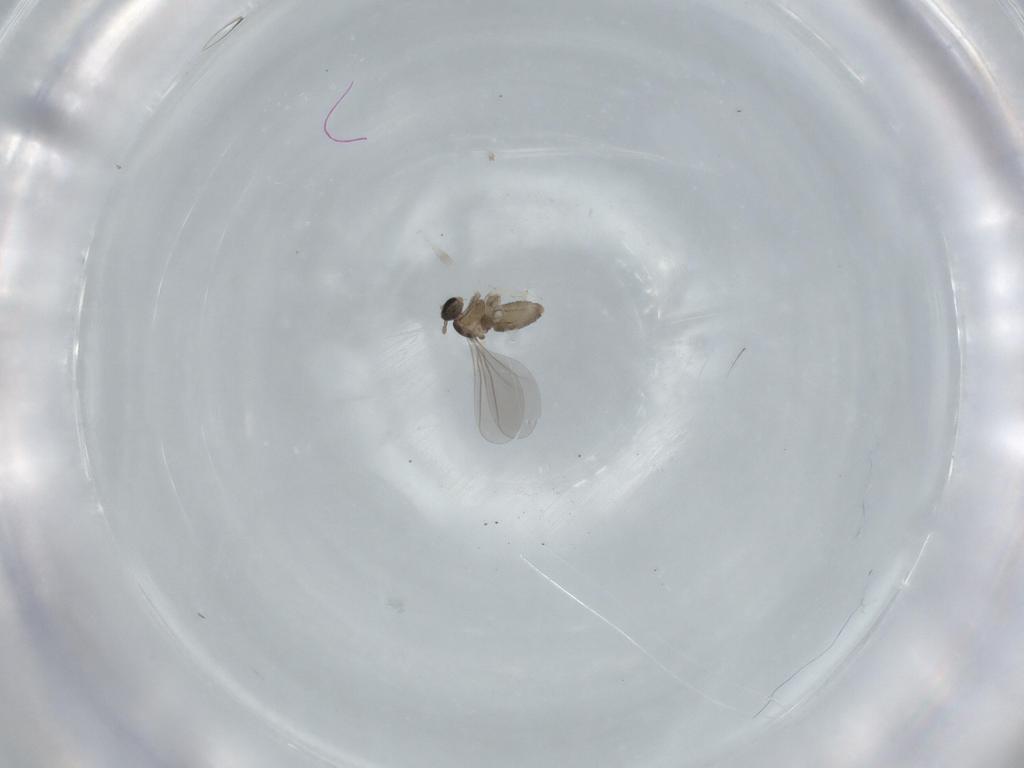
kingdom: Animalia
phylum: Arthropoda
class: Insecta
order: Diptera
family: Cecidomyiidae
